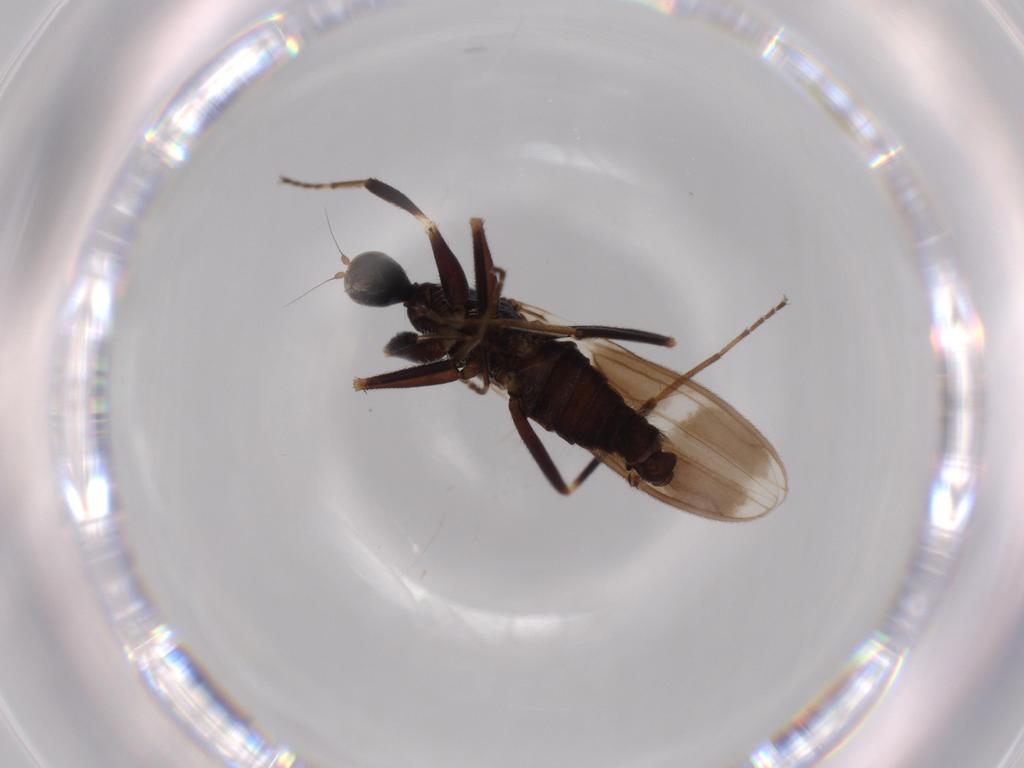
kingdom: Animalia
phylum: Arthropoda
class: Insecta
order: Diptera
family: Hybotidae
